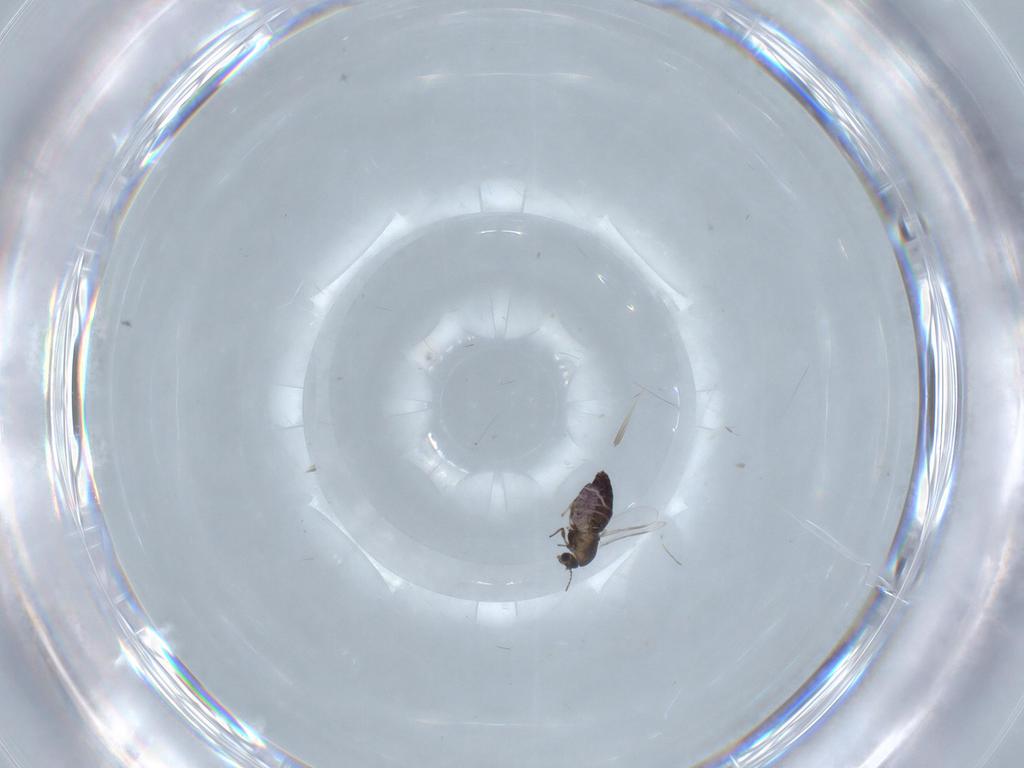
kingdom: Animalia
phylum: Arthropoda
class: Insecta
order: Diptera
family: Chironomidae
